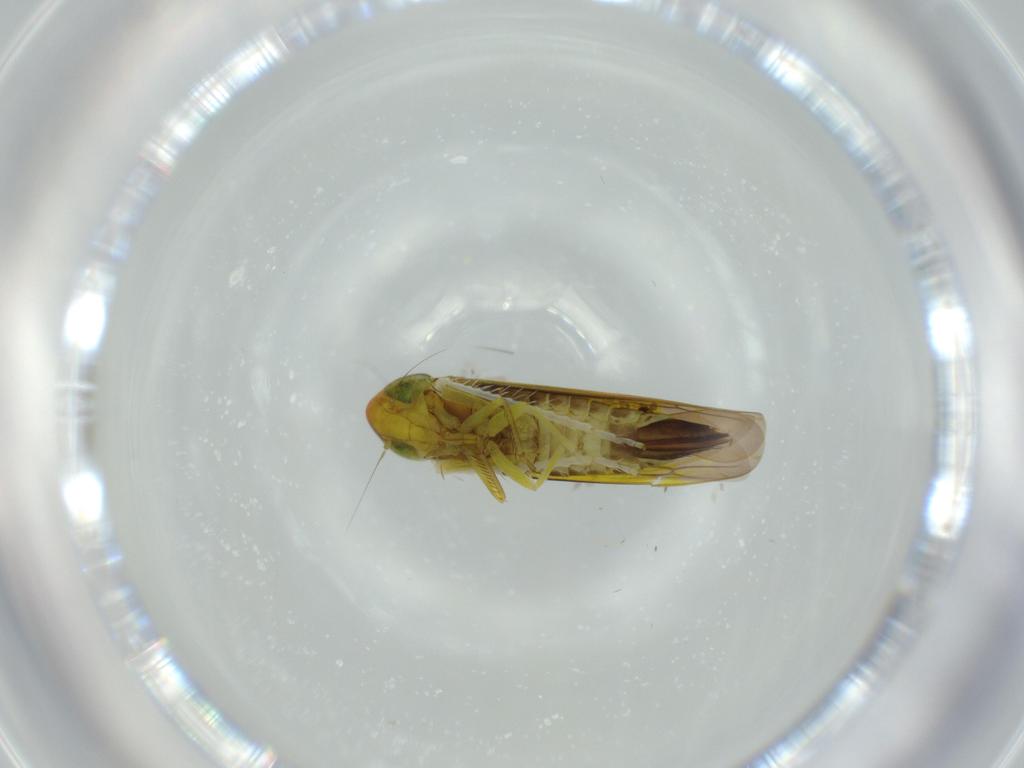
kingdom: Animalia
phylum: Arthropoda
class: Insecta
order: Hemiptera
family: Cicadellidae
